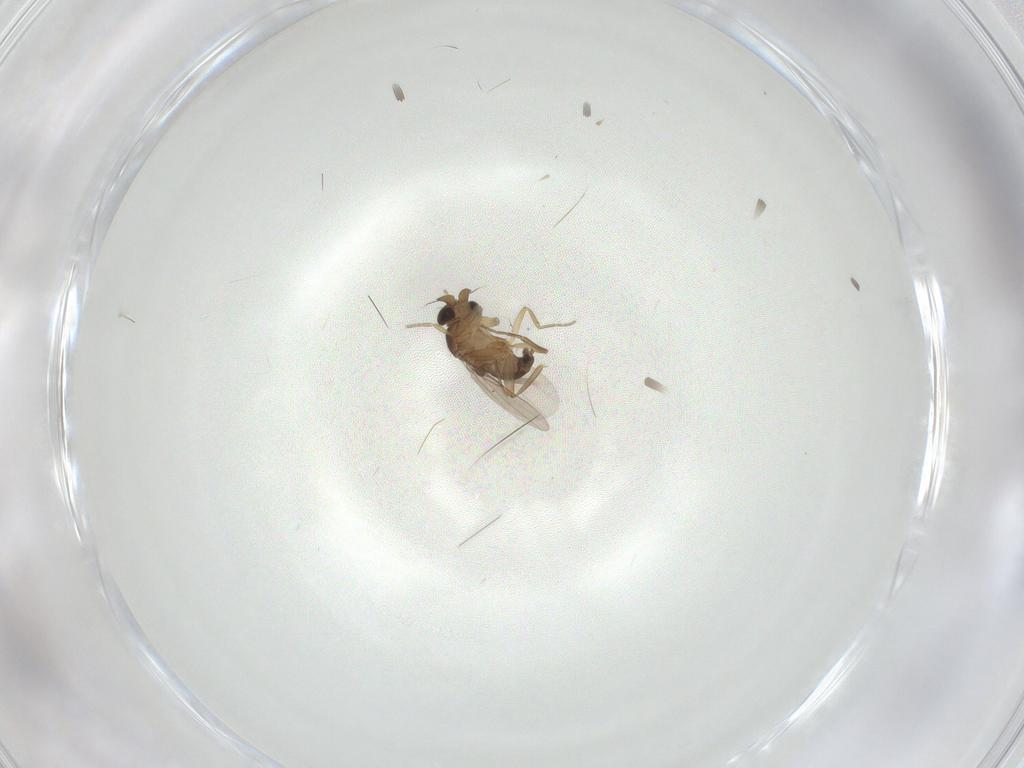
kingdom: Animalia
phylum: Arthropoda
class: Insecta
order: Diptera
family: Phoridae
